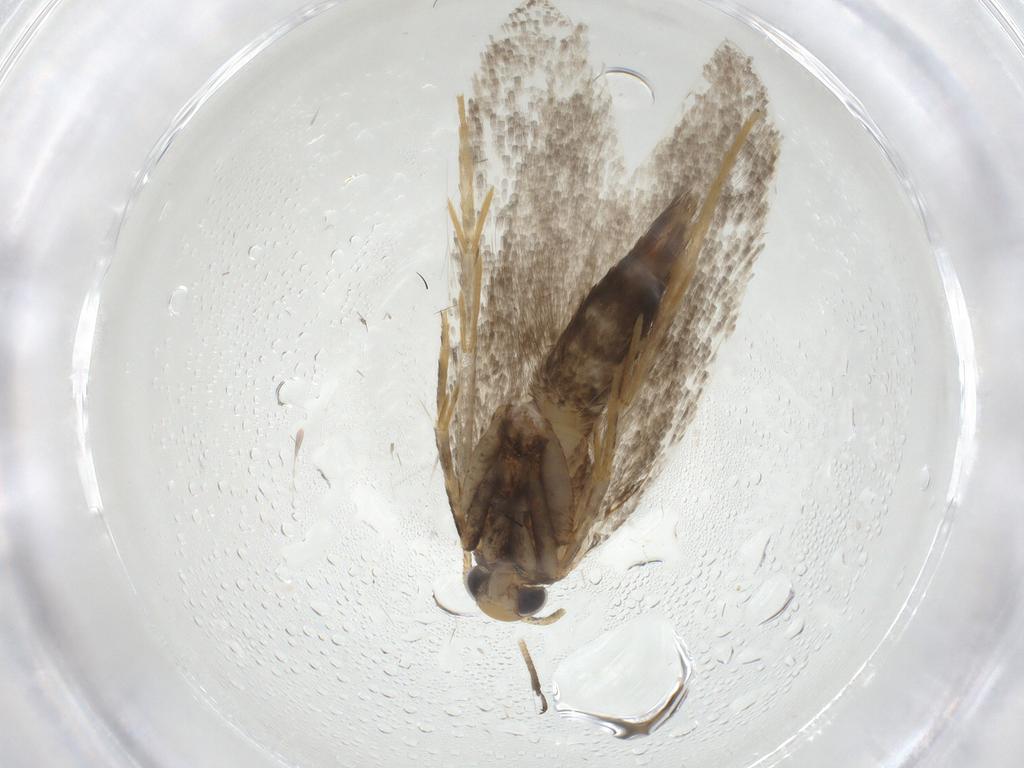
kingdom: Animalia
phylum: Arthropoda
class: Insecta
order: Lepidoptera
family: Autostichidae
